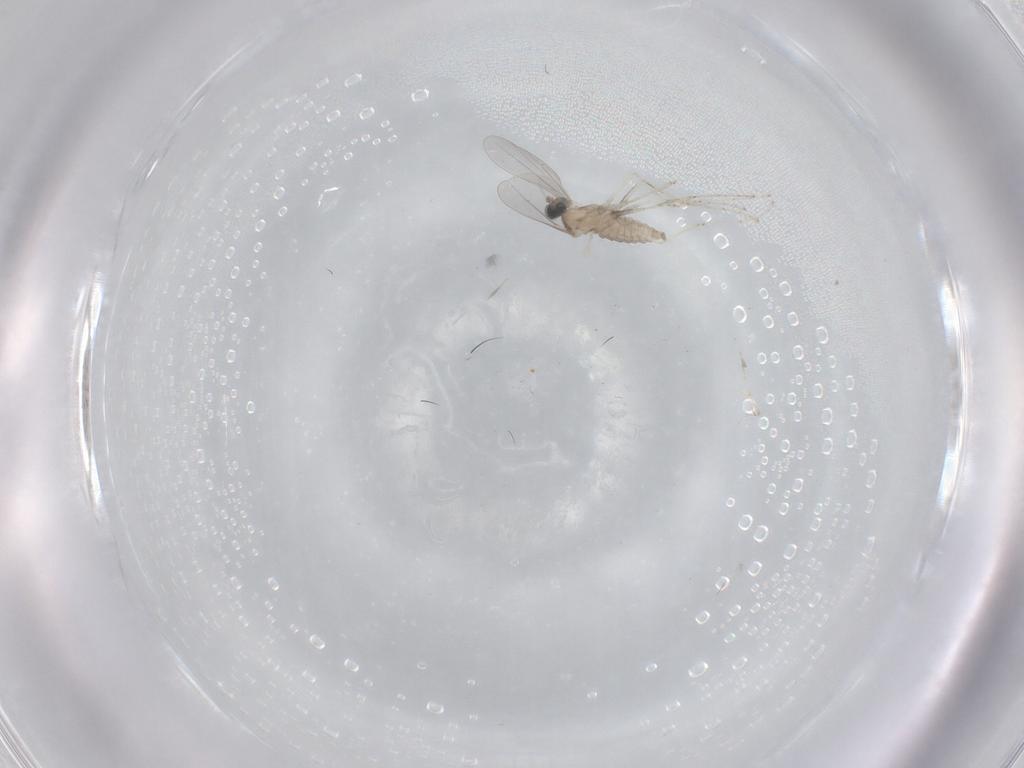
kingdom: Animalia
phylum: Arthropoda
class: Insecta
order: Diptera
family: Cecidomyiidae
